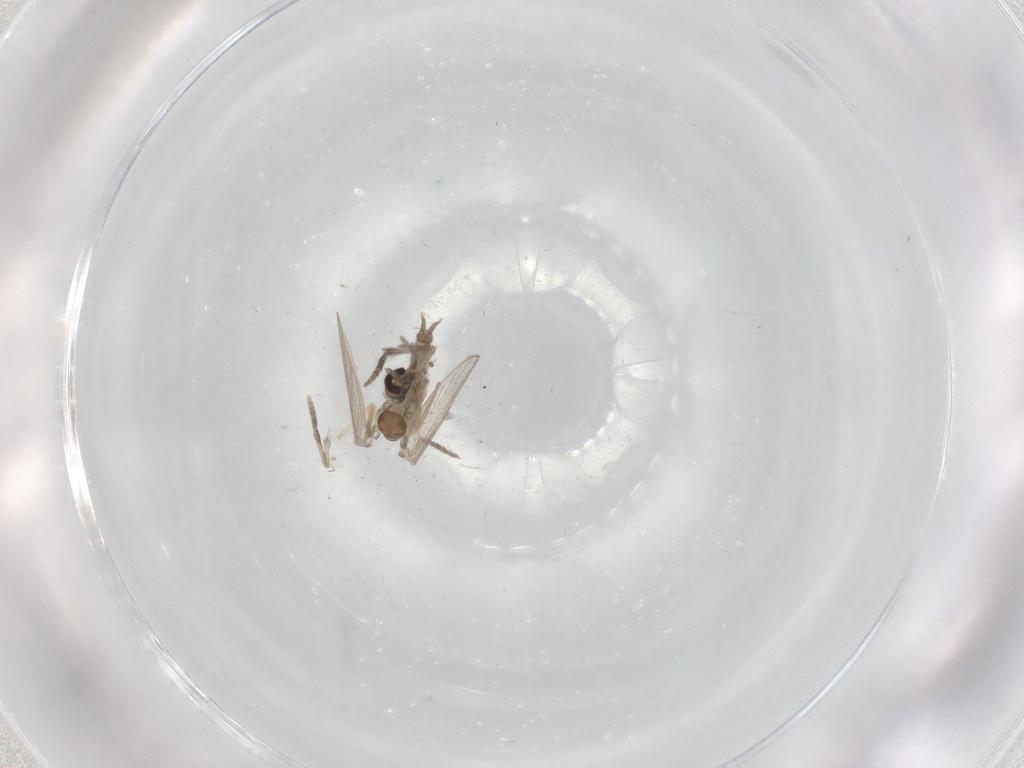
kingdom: Animalia
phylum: Arthropoda
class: Insecta
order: Diptera
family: Psychodidae
